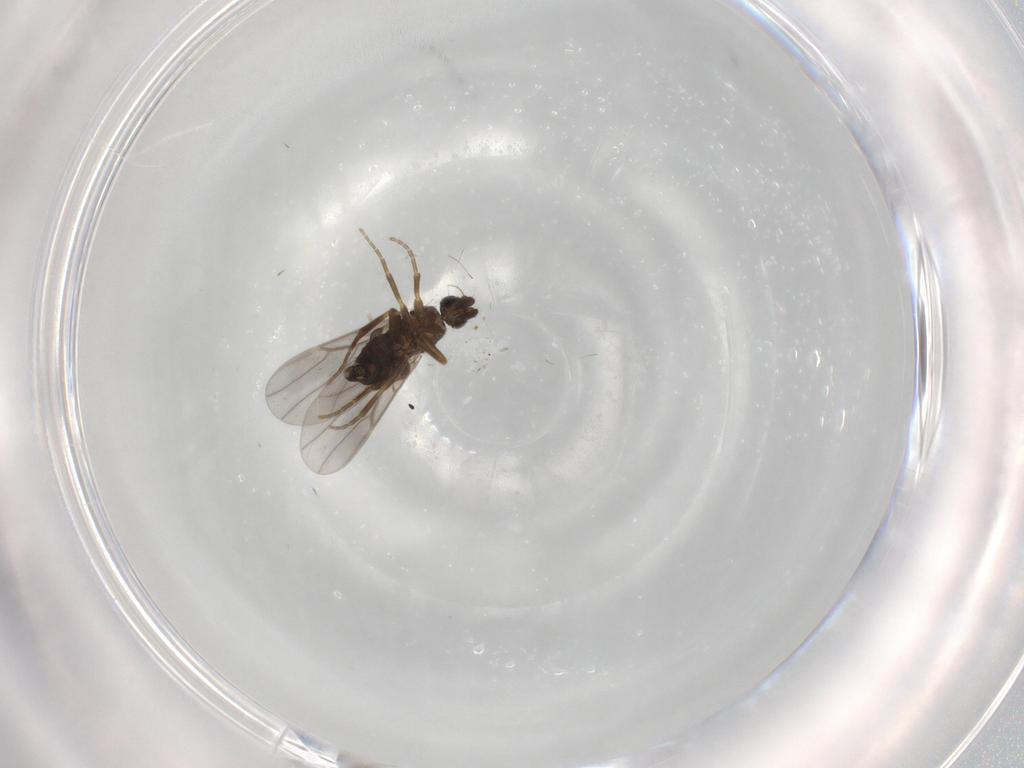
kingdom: Animalia
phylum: Arthropoda
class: Insecta
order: Diptera
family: Phoridae
